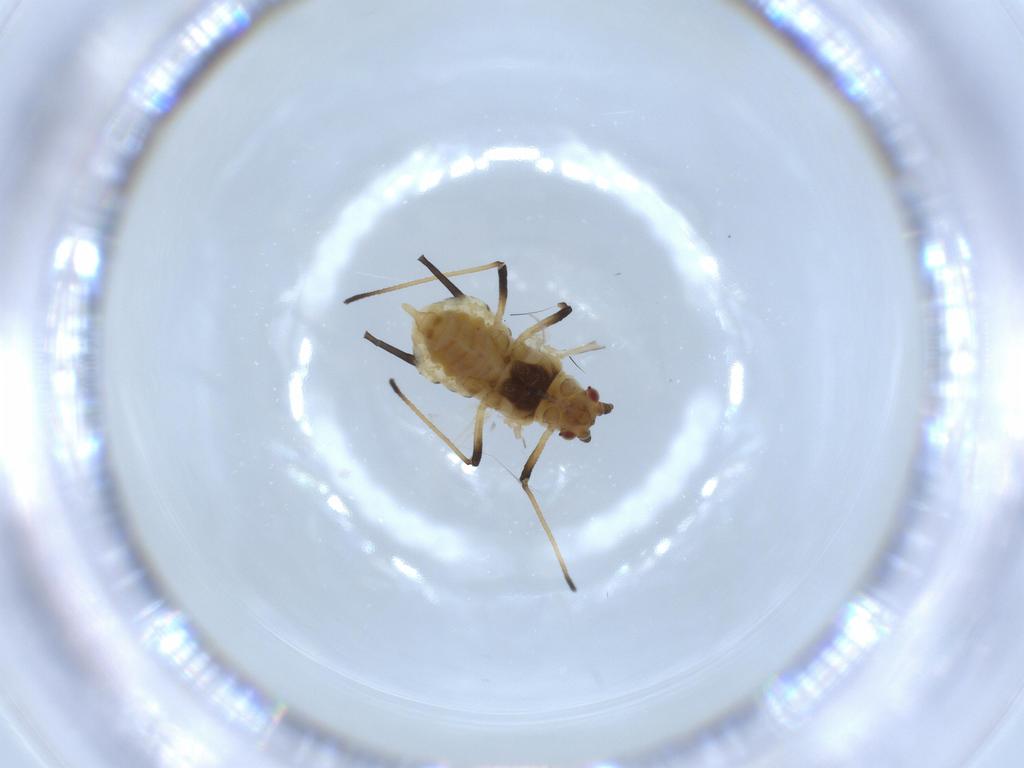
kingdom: Animalia
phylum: Arthropoda
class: Insecta
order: Hemiptera
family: Aphididae
